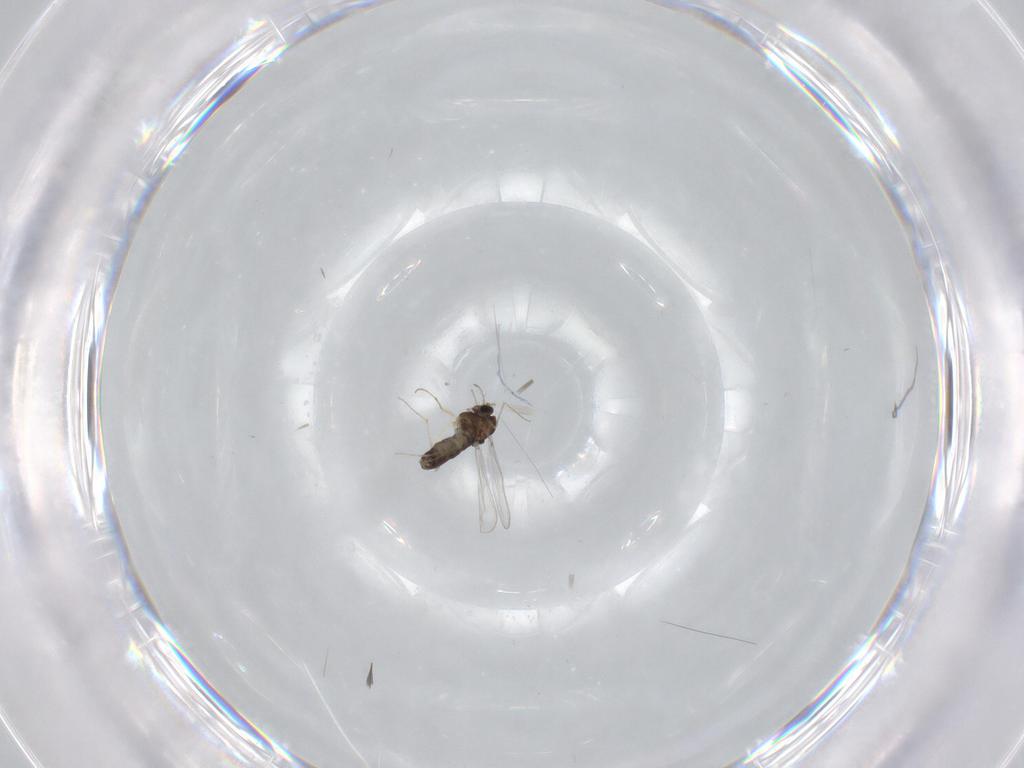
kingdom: Animalia
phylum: Arthropoda
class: Insecta
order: Diptera
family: Chironomidae
